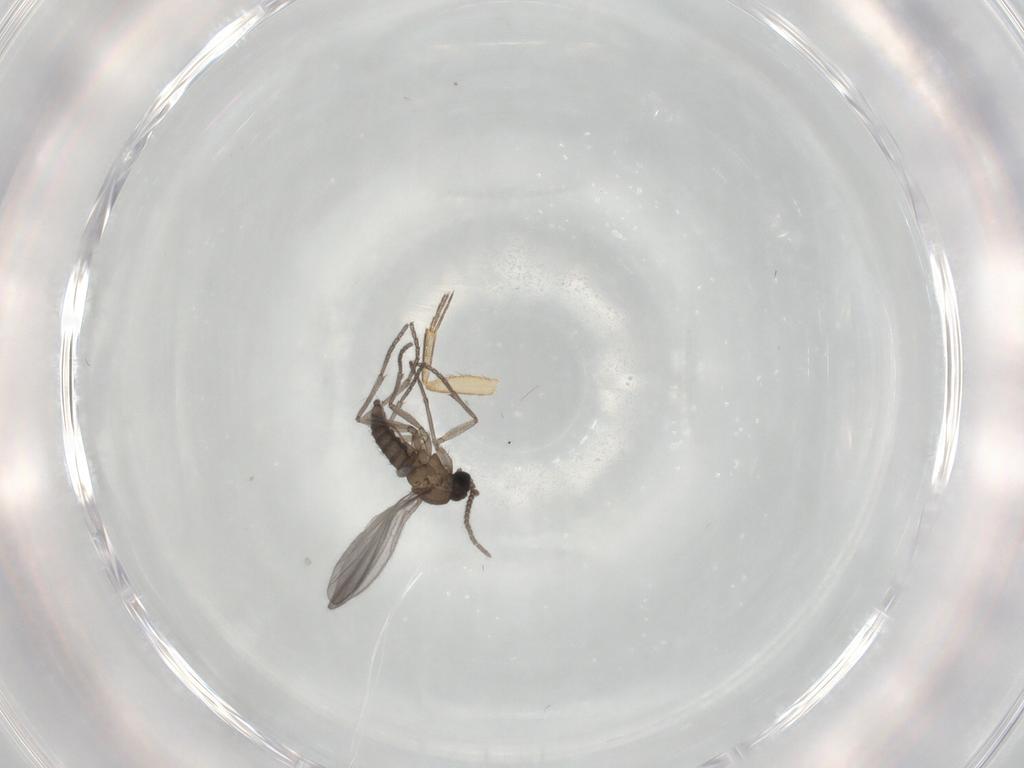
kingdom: Animalia
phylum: Arthropoda
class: Insecta
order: Diptera
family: Sciaridae
